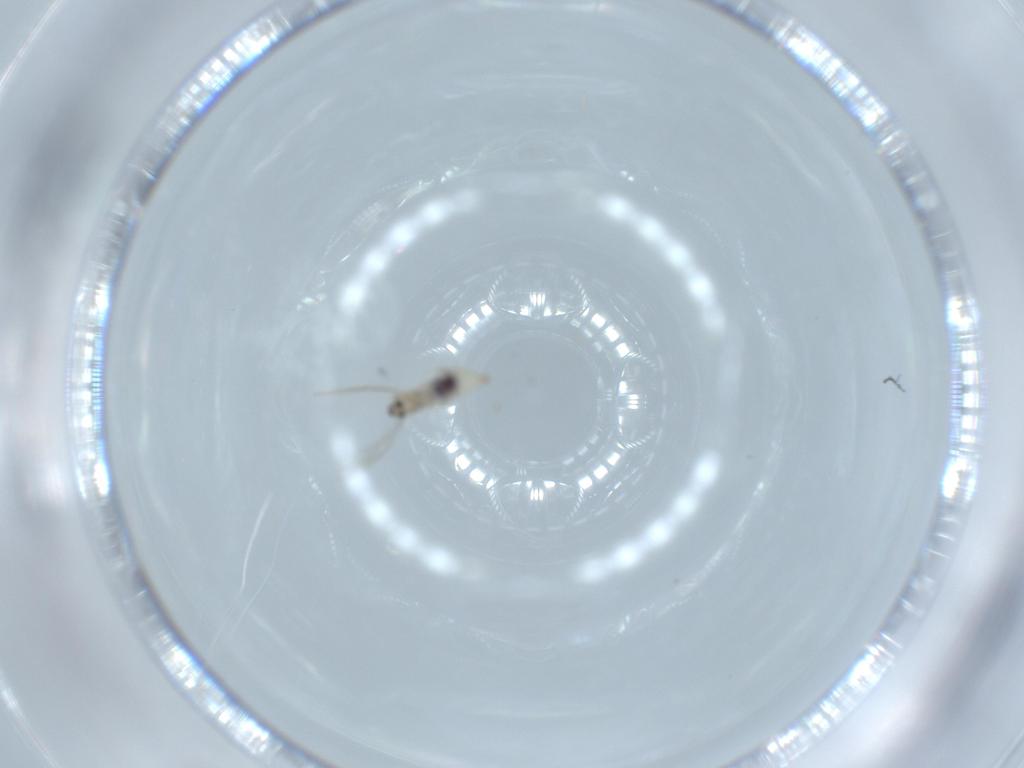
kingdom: Animalia
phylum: Arthropoda
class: Insecta
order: Diptera
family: Cecidomyiidae
